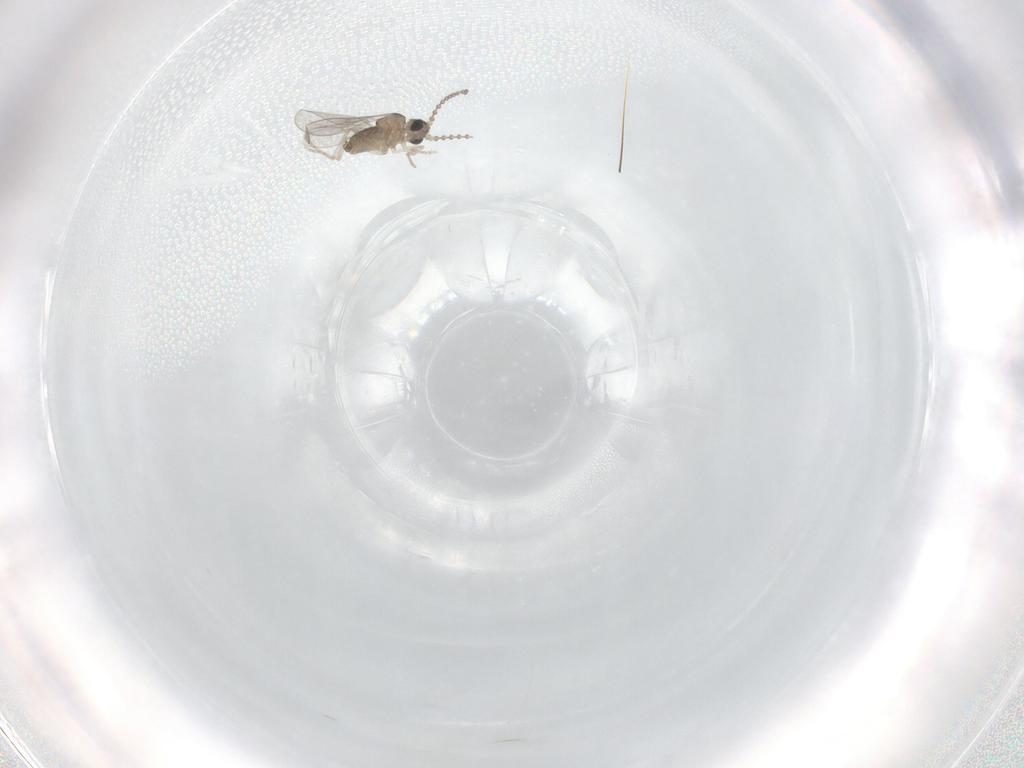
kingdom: Animalia
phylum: Arthropoda
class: Insecta
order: Diptera
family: Cecidomyiidae
